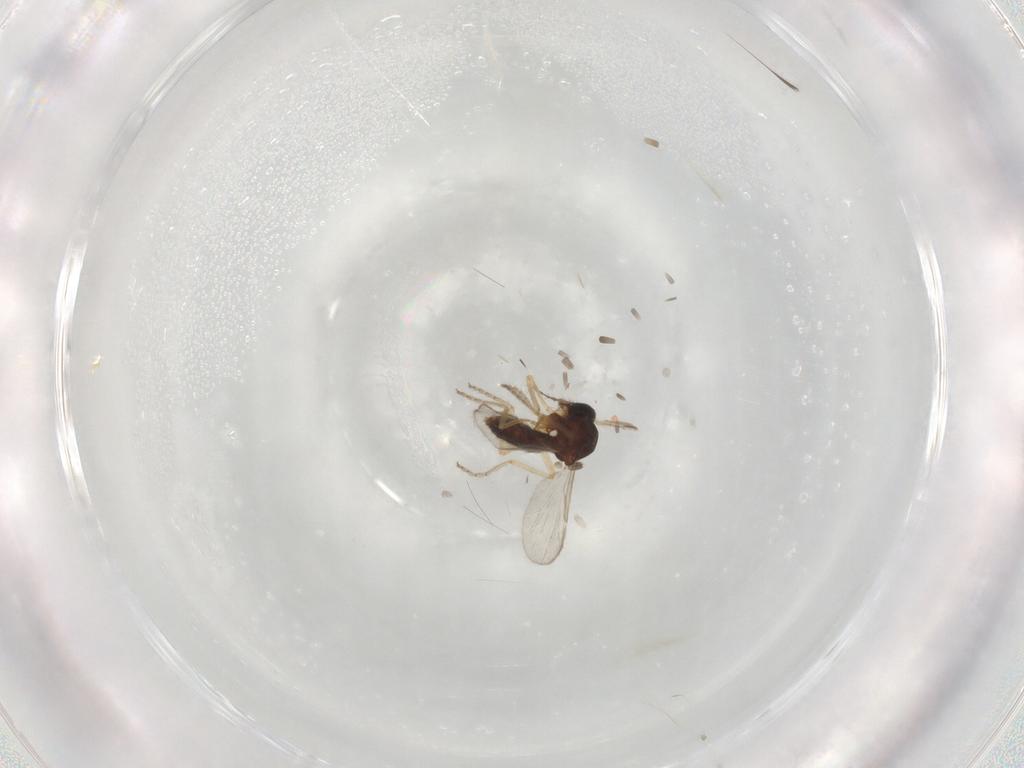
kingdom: Animalia
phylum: Arthropoda
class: Insecta
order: Diptera
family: Ceratopogonidae
